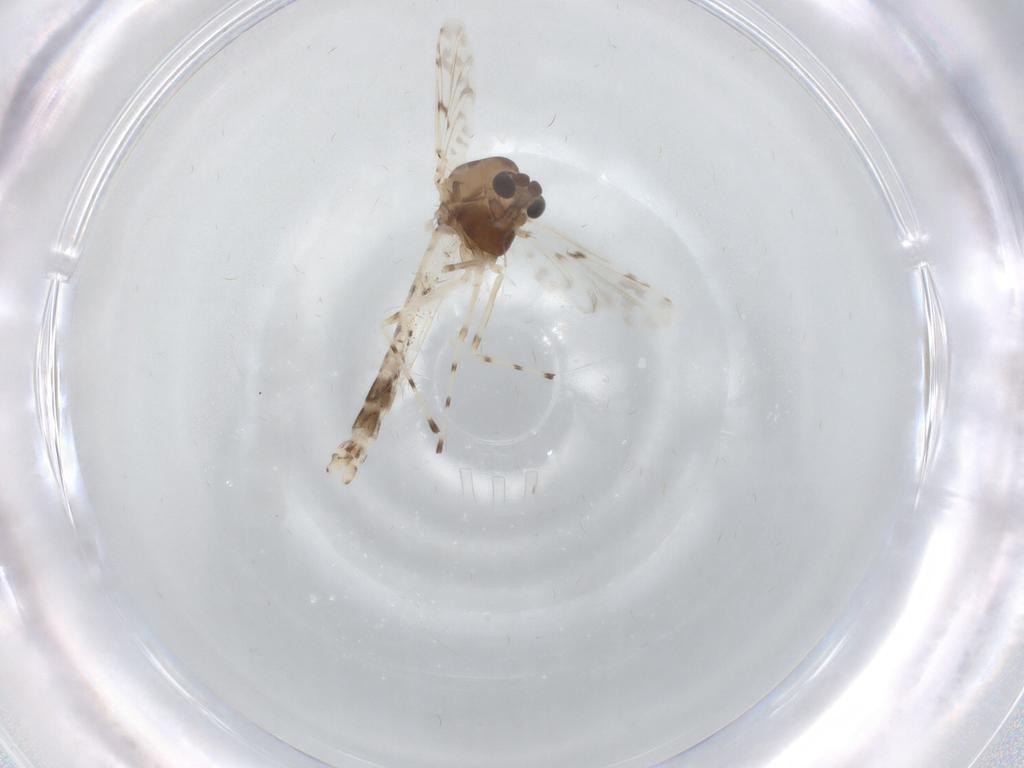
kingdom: Animalia
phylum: Arthropoda
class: Insecta
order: Diptera
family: Chironomidae
